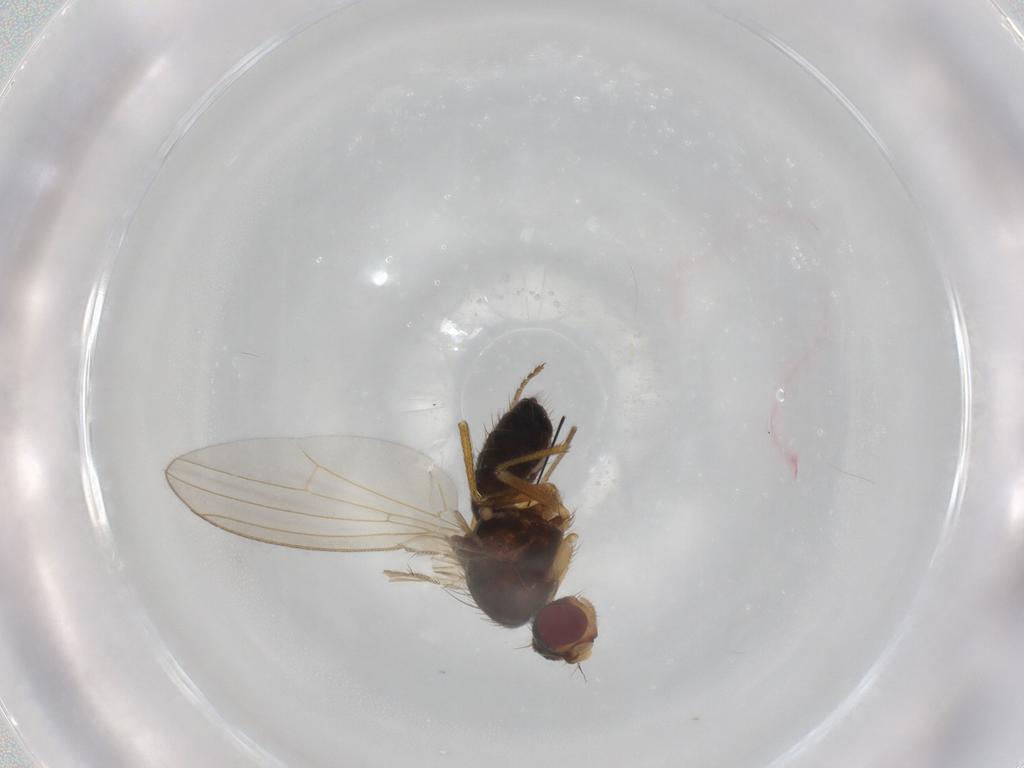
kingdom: Animalia
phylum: Arthropoda
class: Insecta
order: Diptera
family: Drosophilidae
